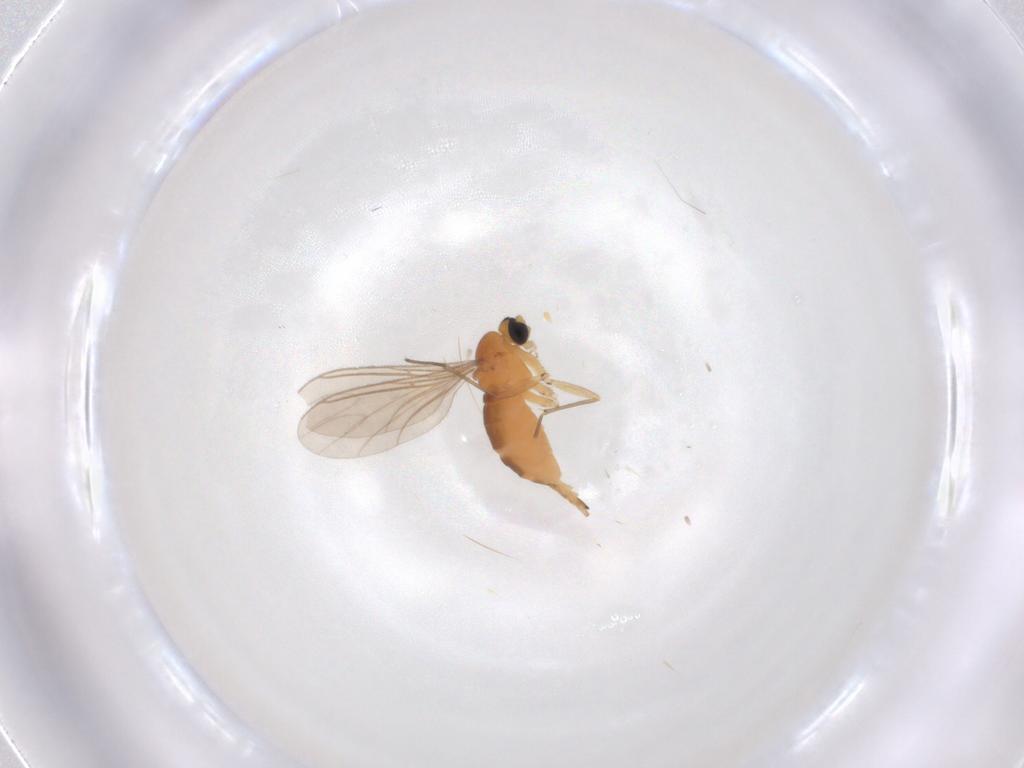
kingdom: Animalia
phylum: Arthropoda
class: Insecta
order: Diptera
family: Sciaridae
